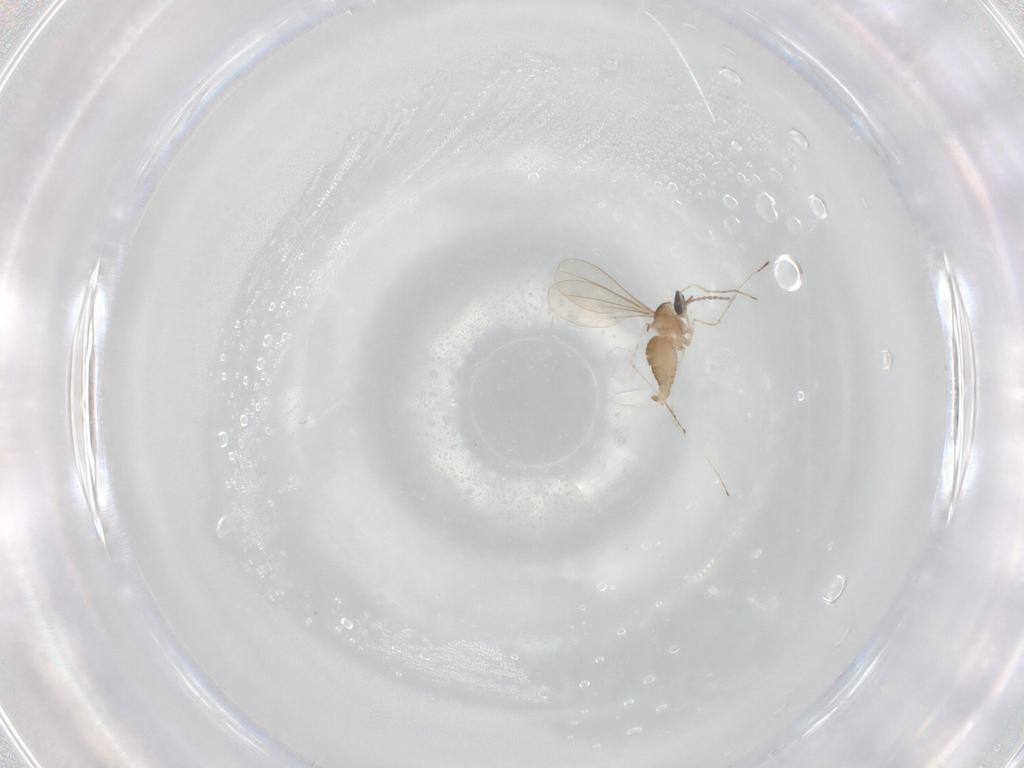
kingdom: Animalia
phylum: Arthropoda
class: Insecta
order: Diptera
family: Cecidomyiidae
